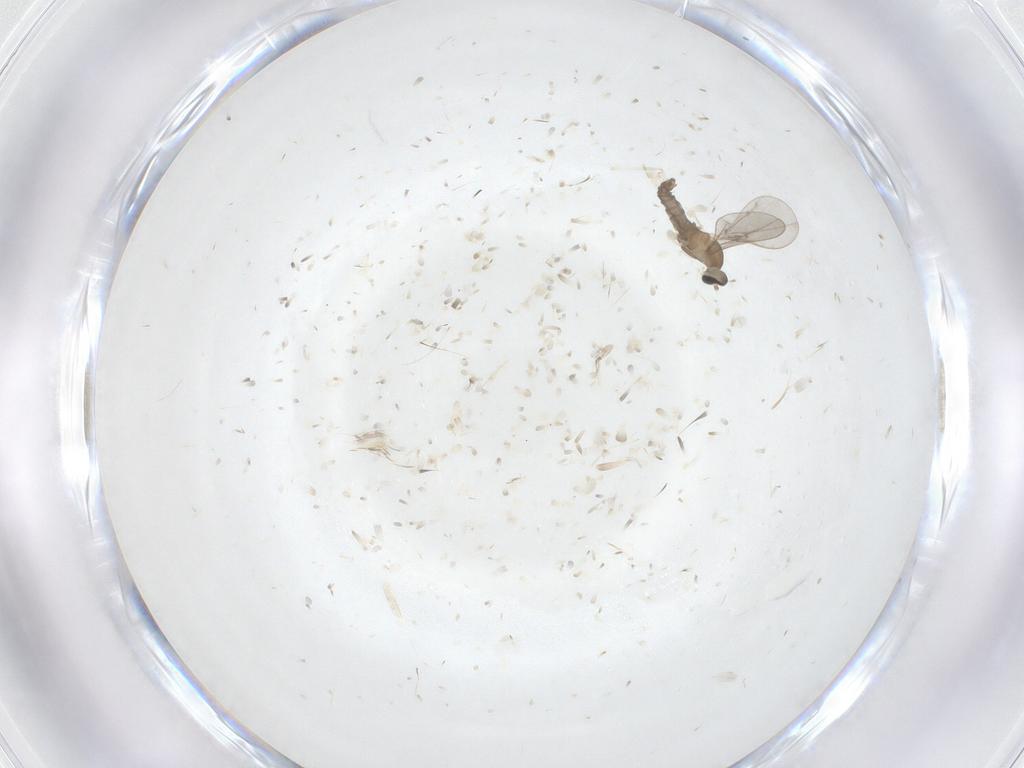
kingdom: Animalia
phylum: Arthropoda
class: Insecta
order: Diptera
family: Cecidomyiidae
